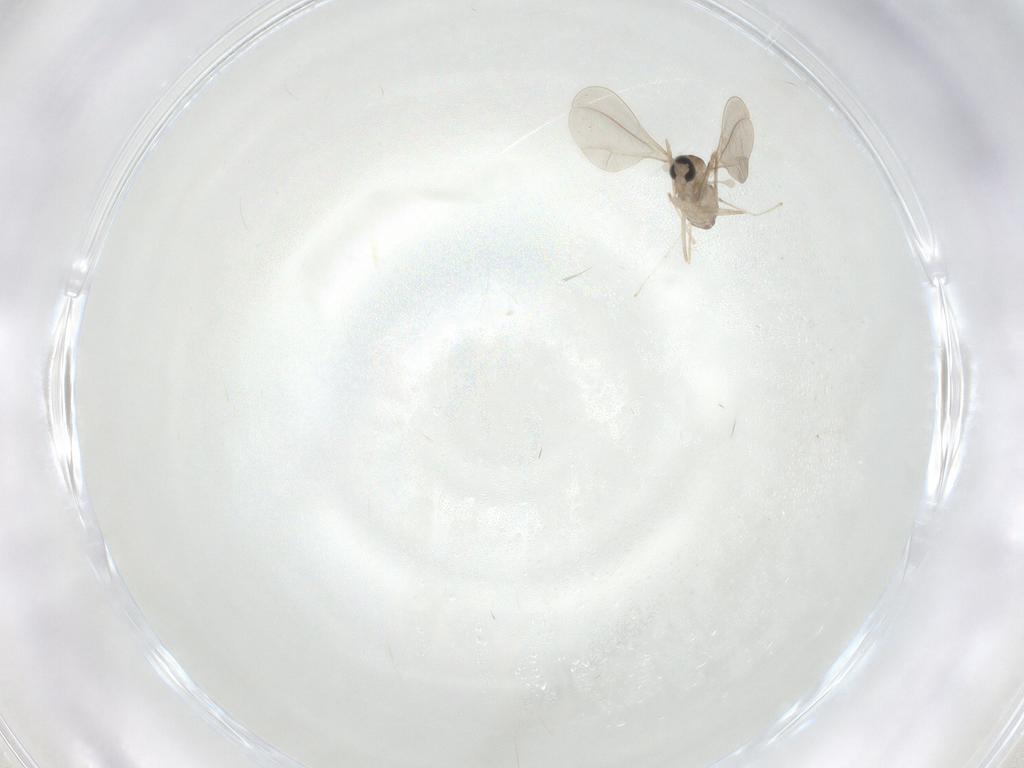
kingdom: Animalia
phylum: Arthropoda
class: Insecta
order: Diptera
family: Cecidomyiidae
